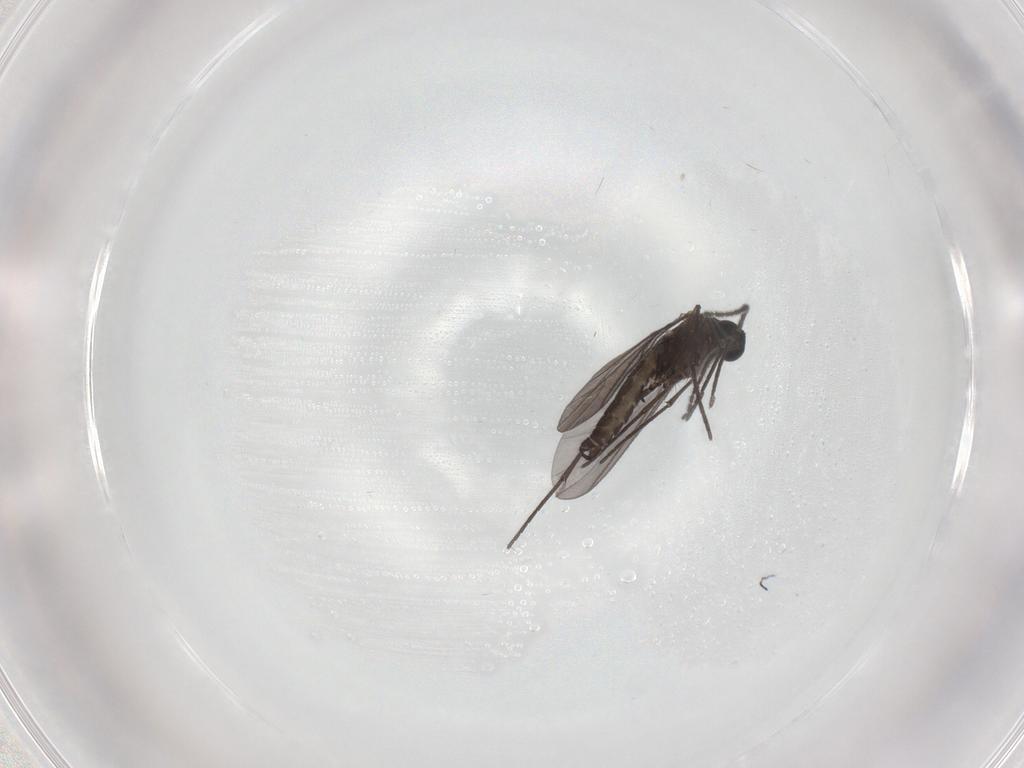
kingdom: Animalia
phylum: Arthropoda
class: Insecta
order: Diptera
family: Sciaridae
